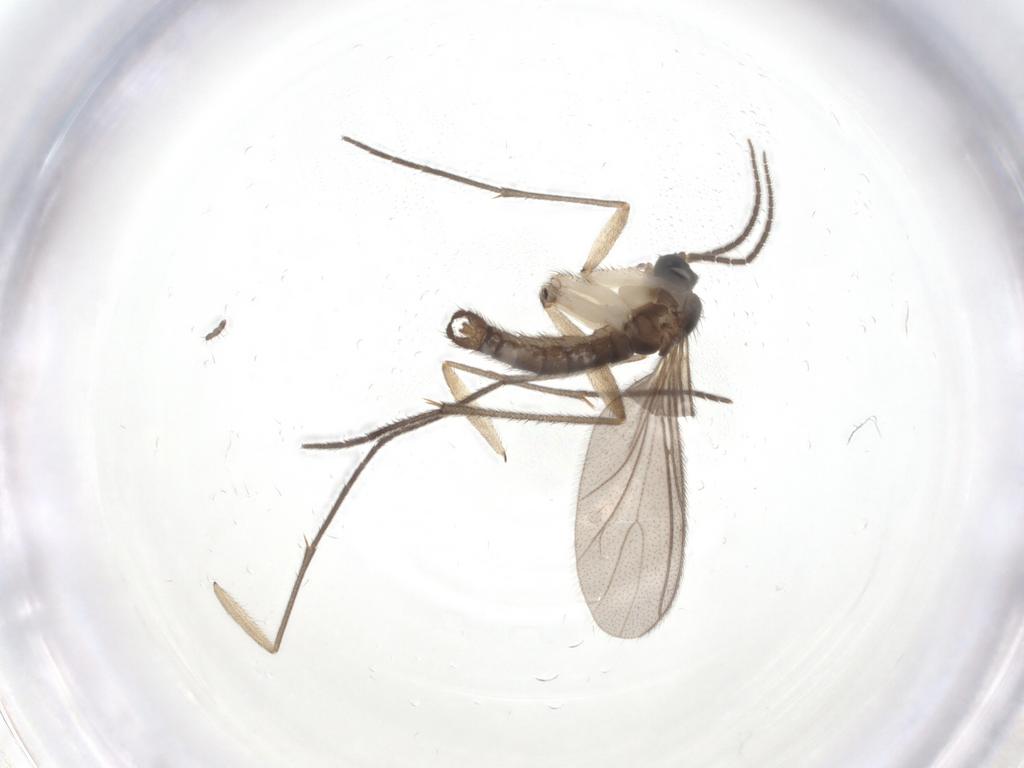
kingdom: Animalia
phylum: Arthropoda
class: Insecta
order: Diptera
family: Sciaridae
